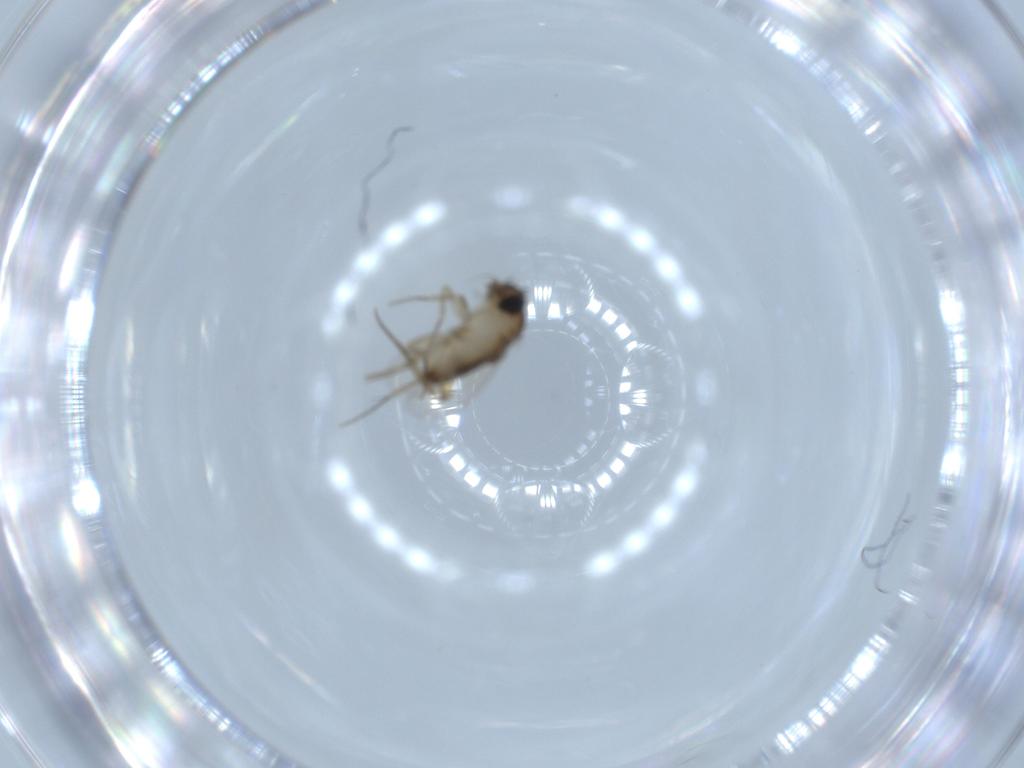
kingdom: Animalia
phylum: Arthropoda
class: Insecta
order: Diptera
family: Phoridae
